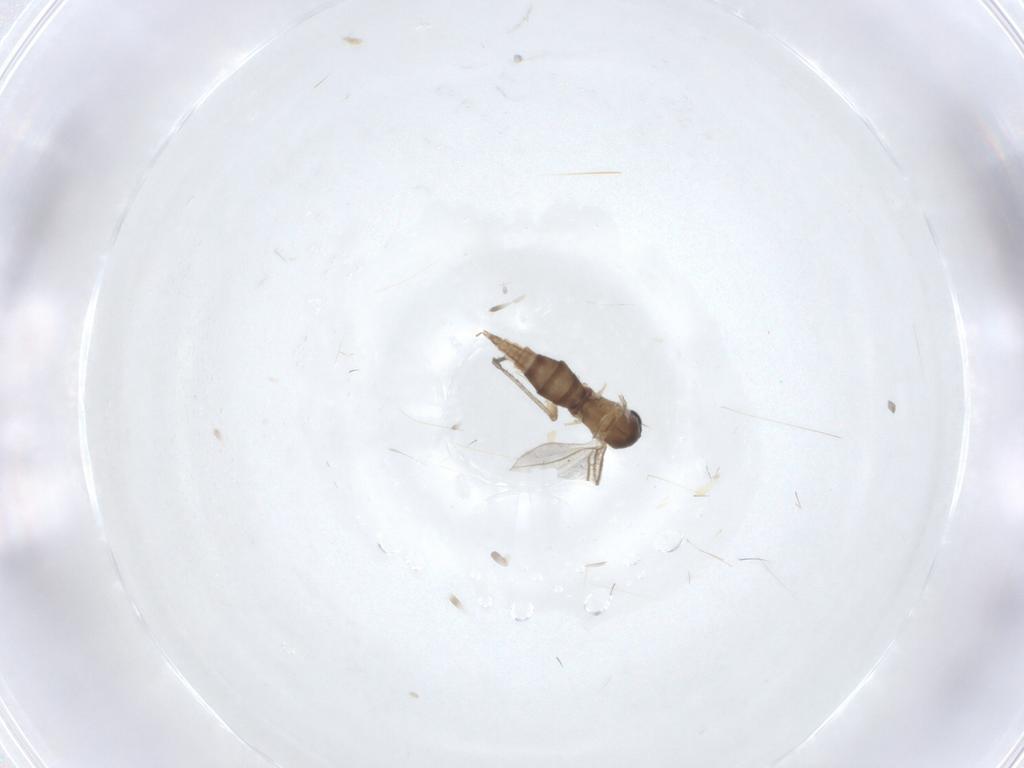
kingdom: Animalia
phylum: Arthropoda
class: Insecta
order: Diptera
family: Sciaridae
